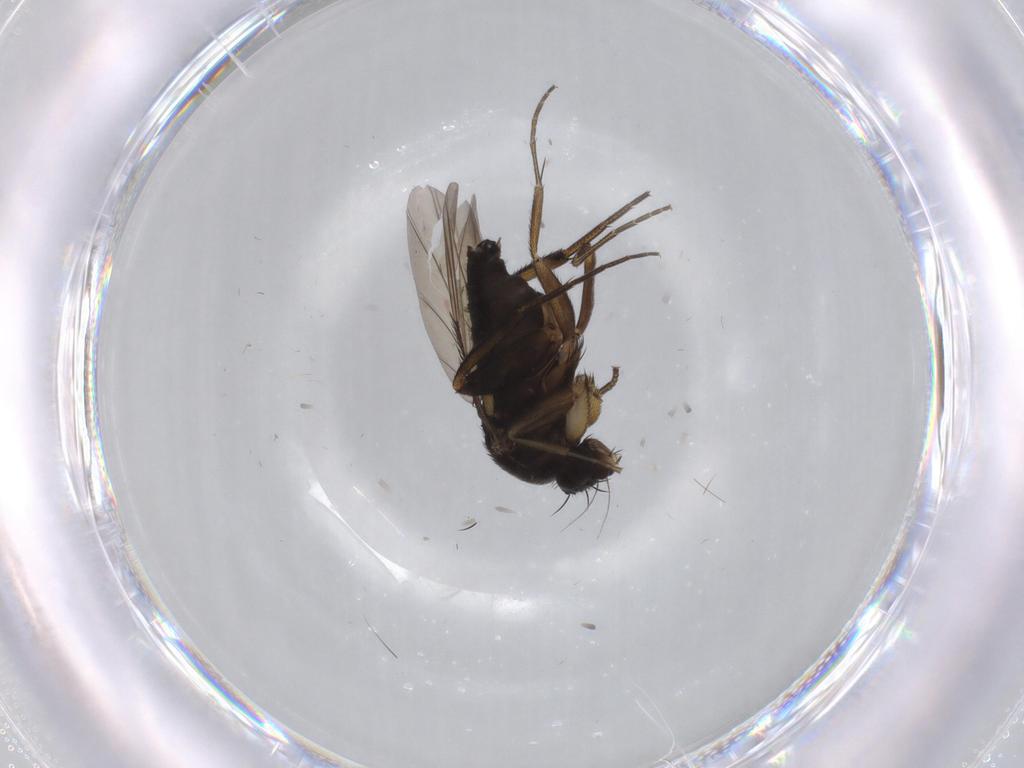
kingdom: Animalia
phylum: Arthropoda
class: Insecta
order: Diptera
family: Phoridae
